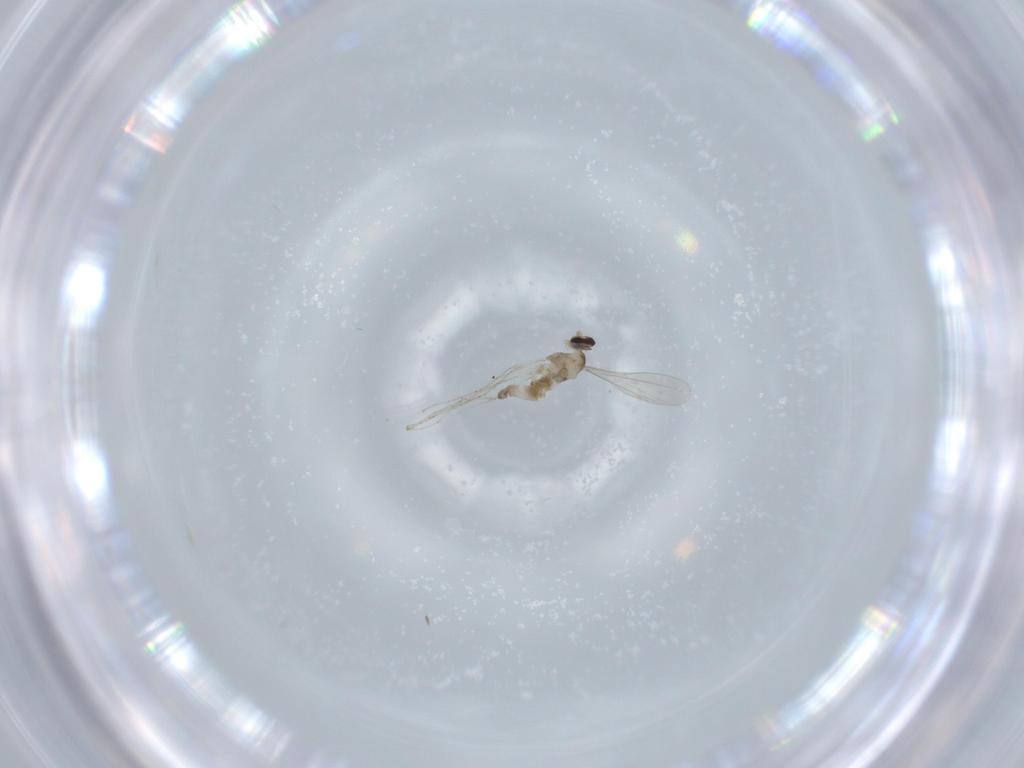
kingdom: Animalia
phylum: Arthropoda
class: Insecta
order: Diptera
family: Cecidomyiidae
